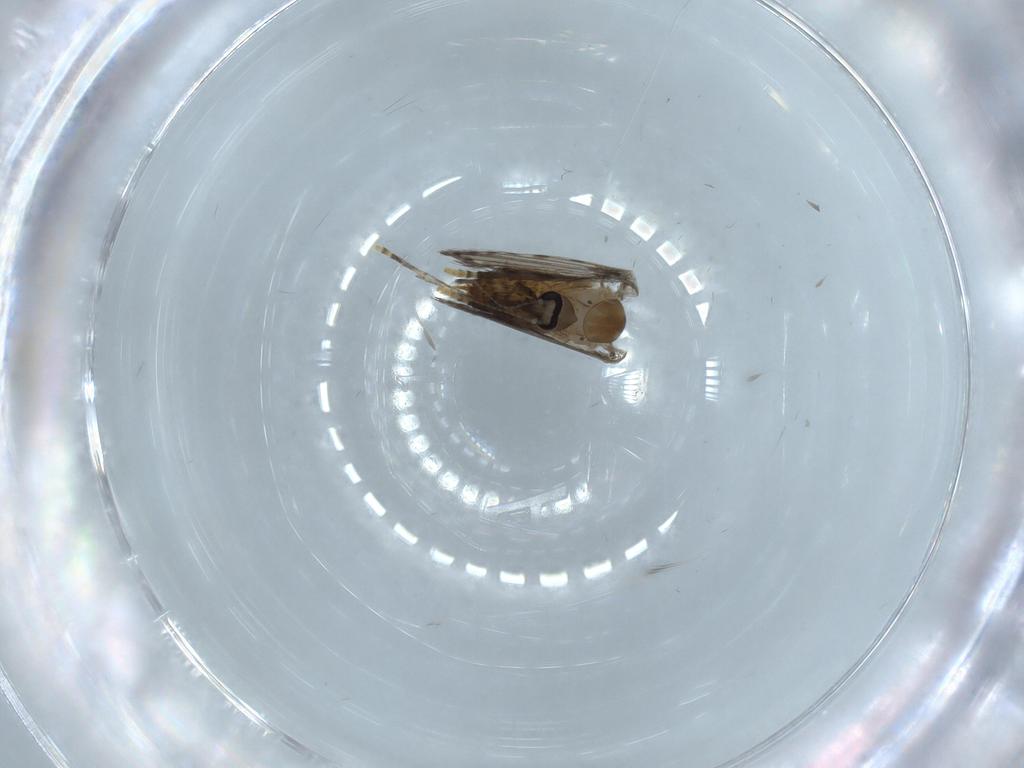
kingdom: Animalia
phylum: Arthropoda
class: Insecta
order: Diptera
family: Psychodidae
